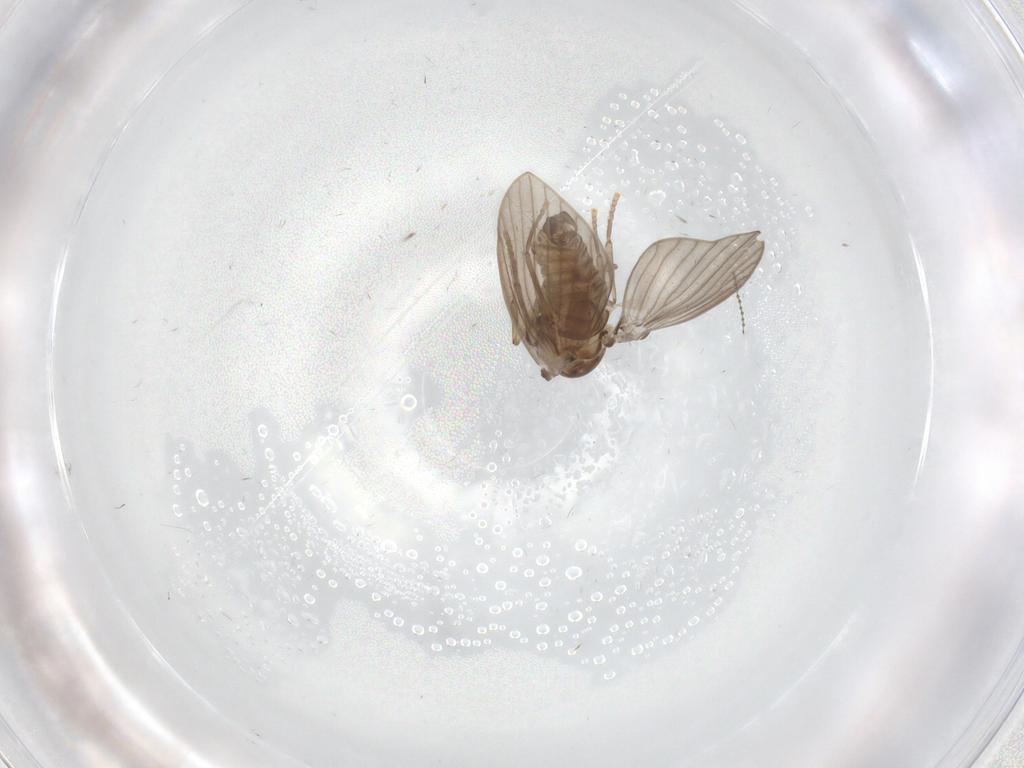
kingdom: Animalia
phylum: Arthropoda
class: Insecta
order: Diptera
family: Psychodidae
